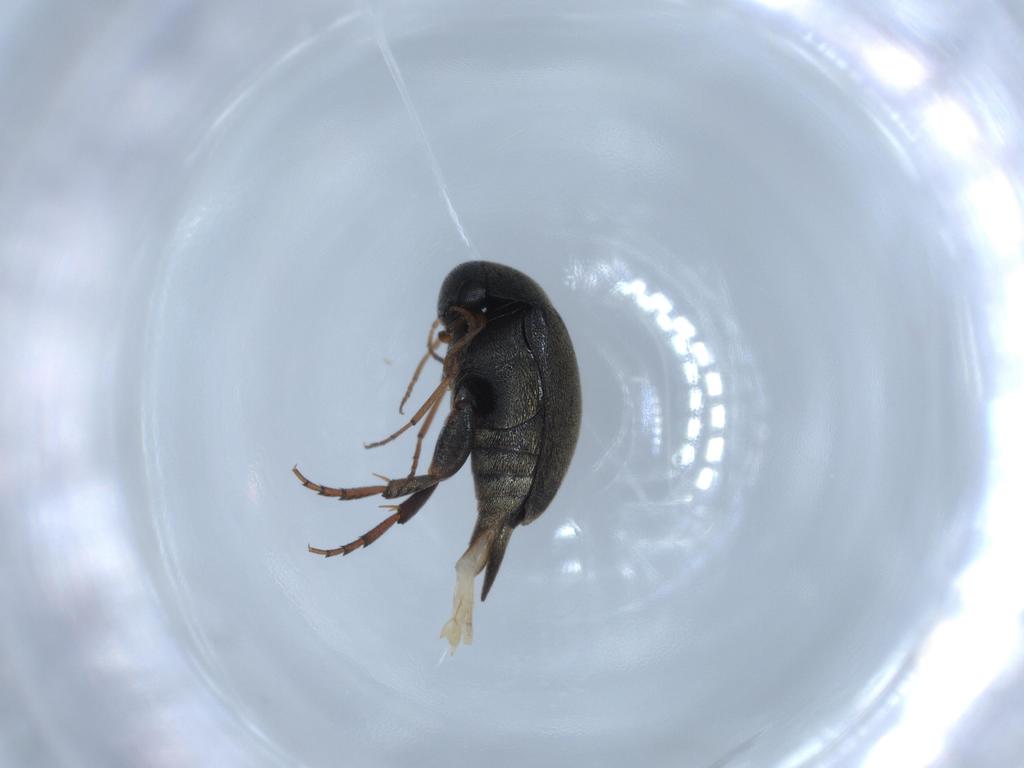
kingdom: Animalia
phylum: Arthropoda
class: Insecta
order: Coleoptera
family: Mordellidae
